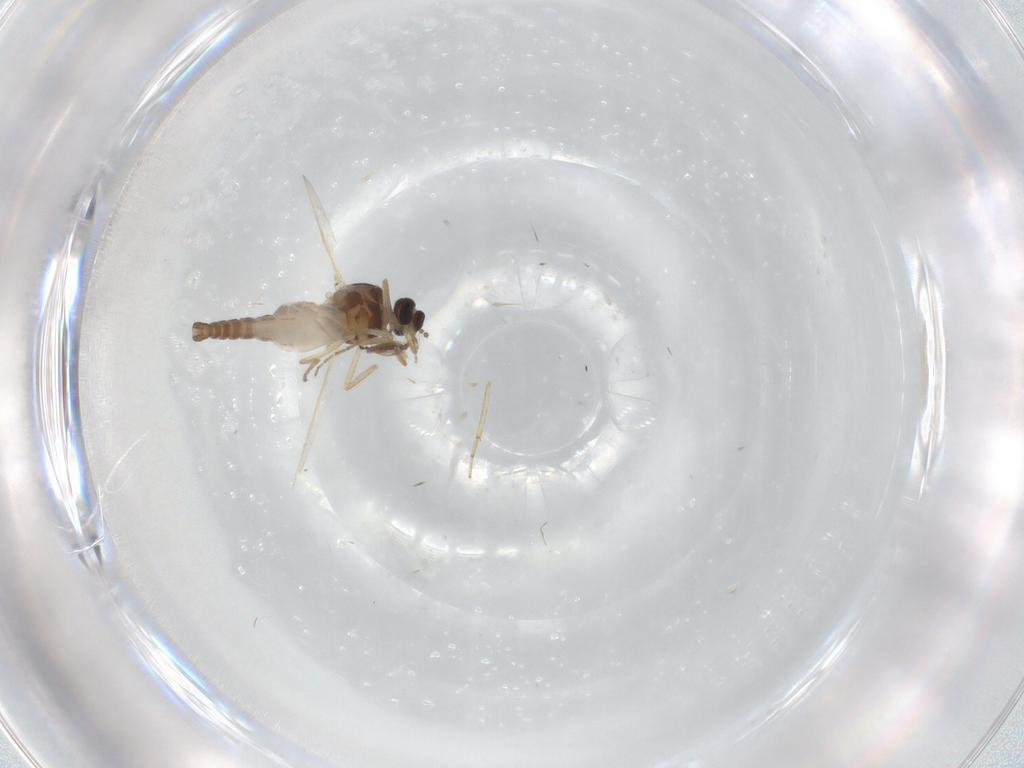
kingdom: Animalia
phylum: Arthropoda
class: Insecta
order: Diptera
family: Ceratopogonidae
